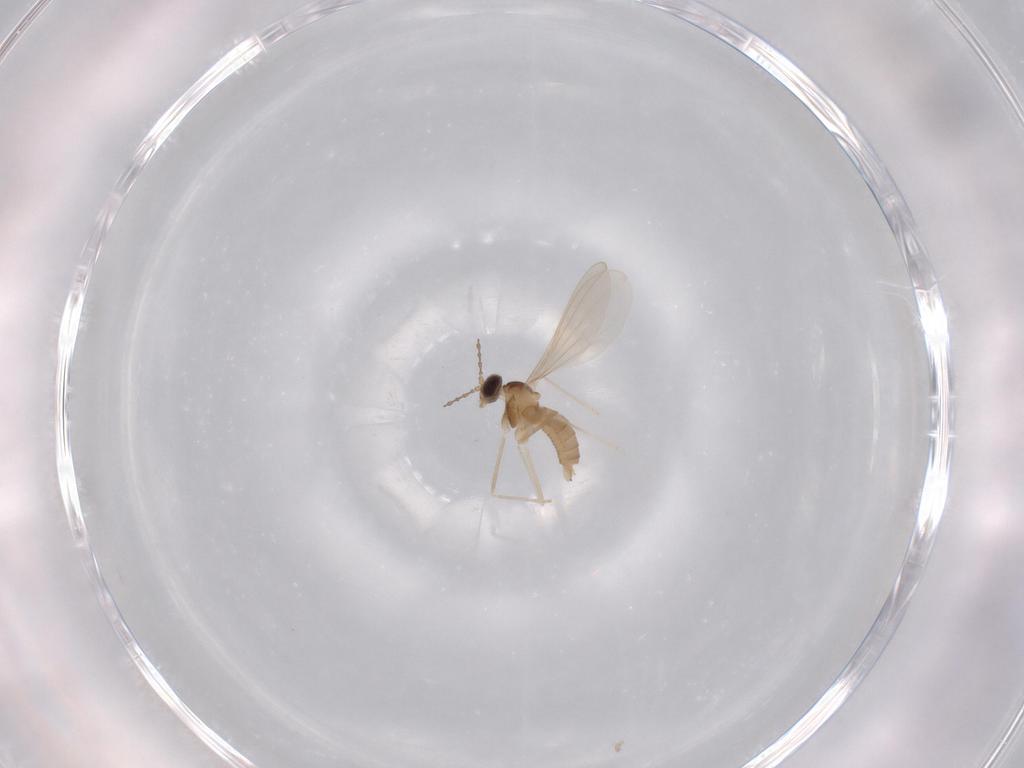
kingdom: Animalia
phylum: Arthropoda
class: Insecta
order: Diptera
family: Cecidomyiidae
